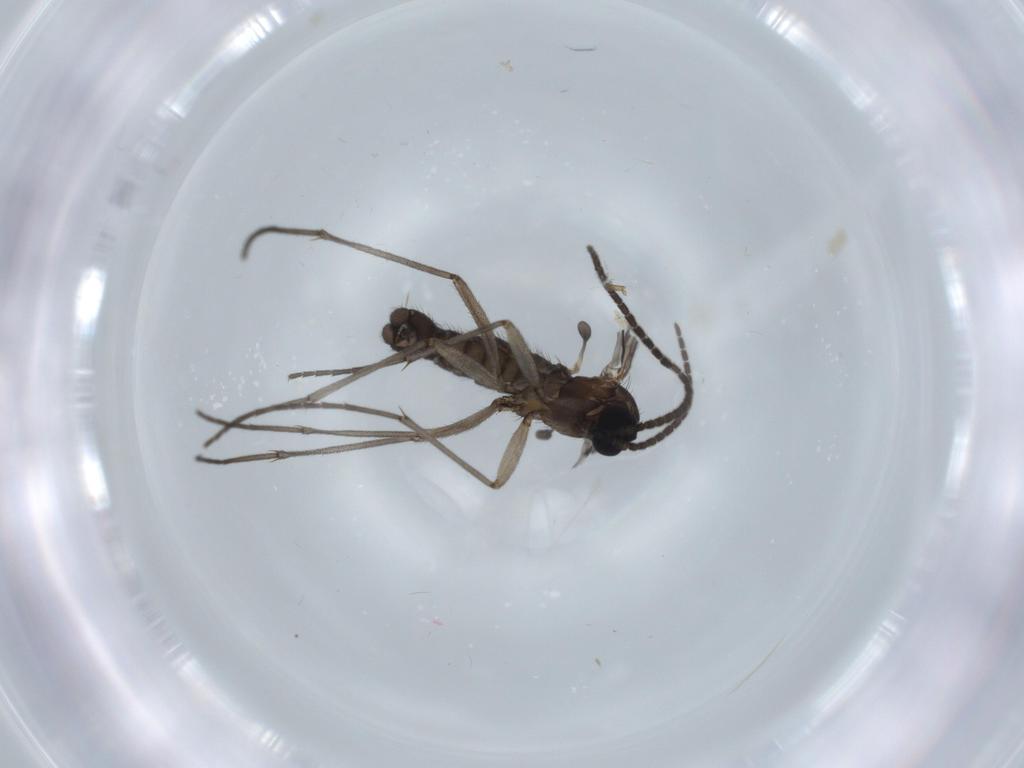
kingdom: Animalia
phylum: Arthropoda
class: Insecta
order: Diptera
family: Sciaridae
